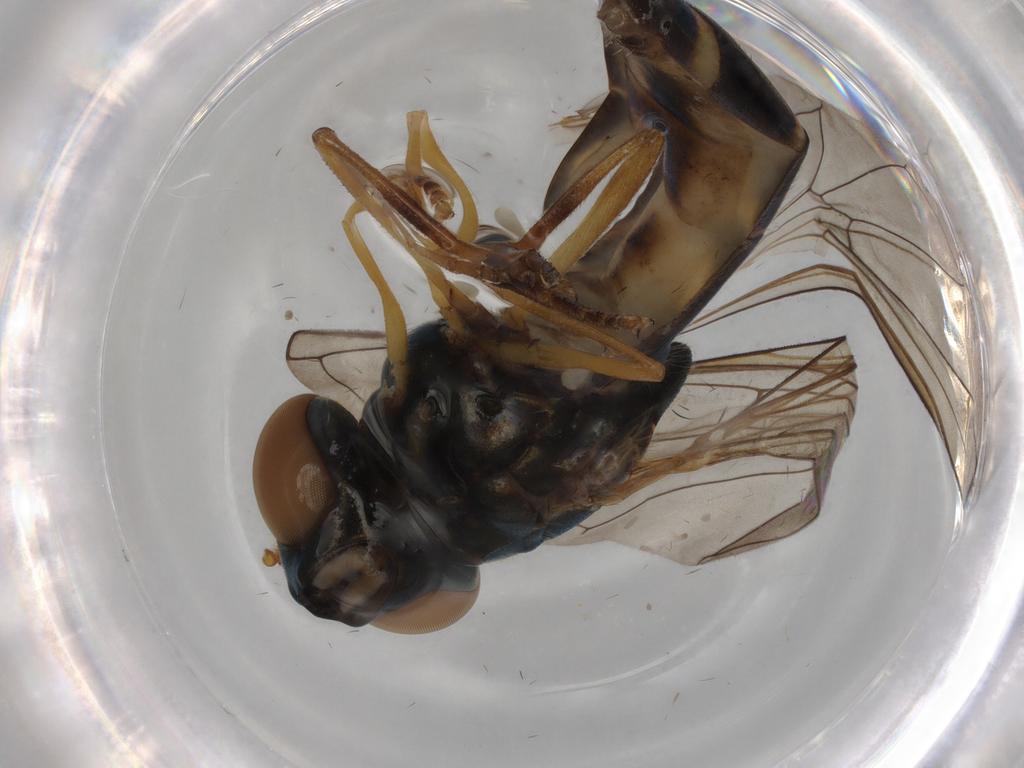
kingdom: Animalia
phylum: Arthropoda
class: Insecta
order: Diptera
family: Syrphidae
